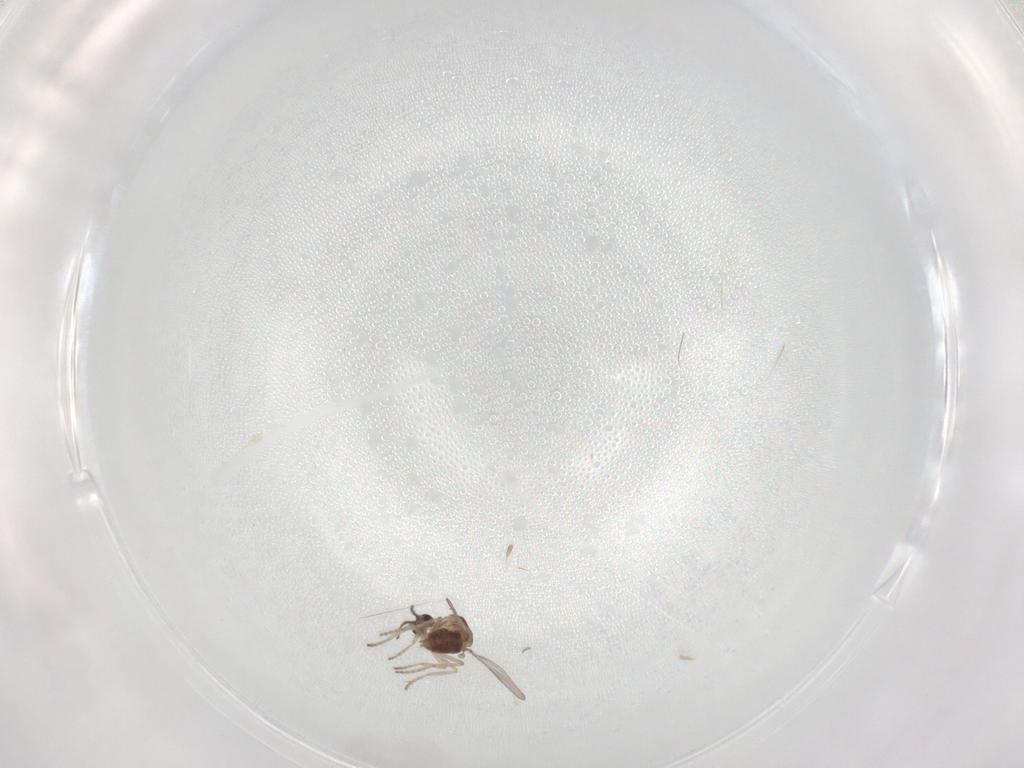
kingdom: Animalia
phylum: Arthropoda
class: Insecta
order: Diptera
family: Ceratopogonidae
